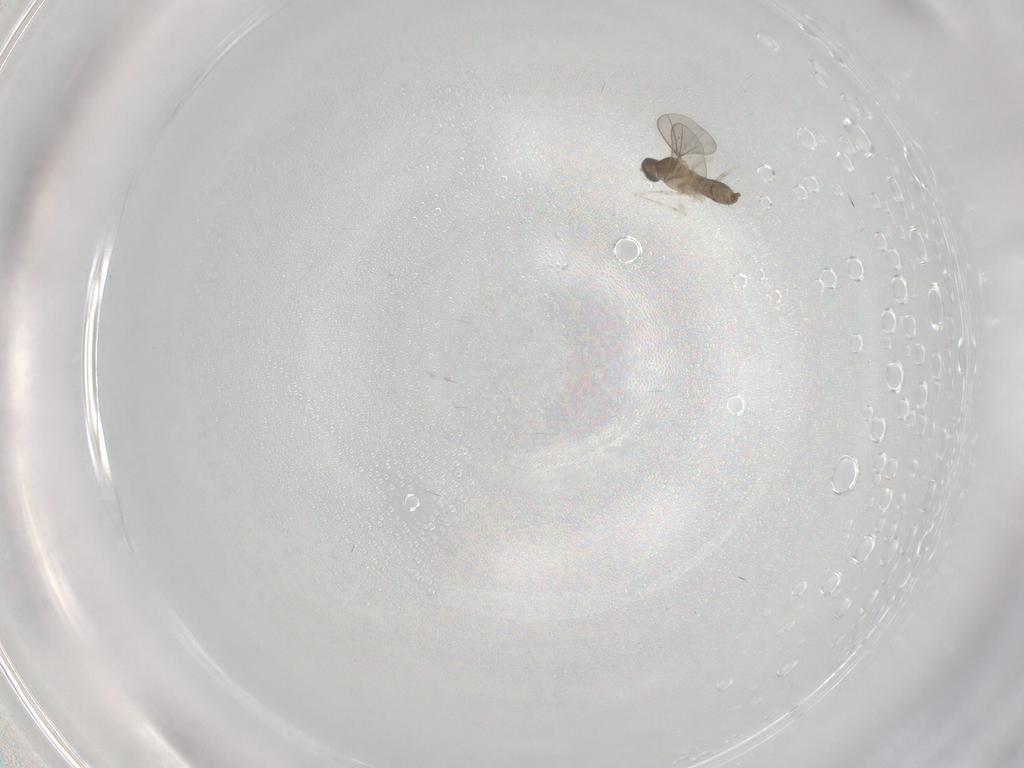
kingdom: Animalia
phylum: Arthropoda
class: Insecta
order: Diptera
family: Cecidomyiidae
